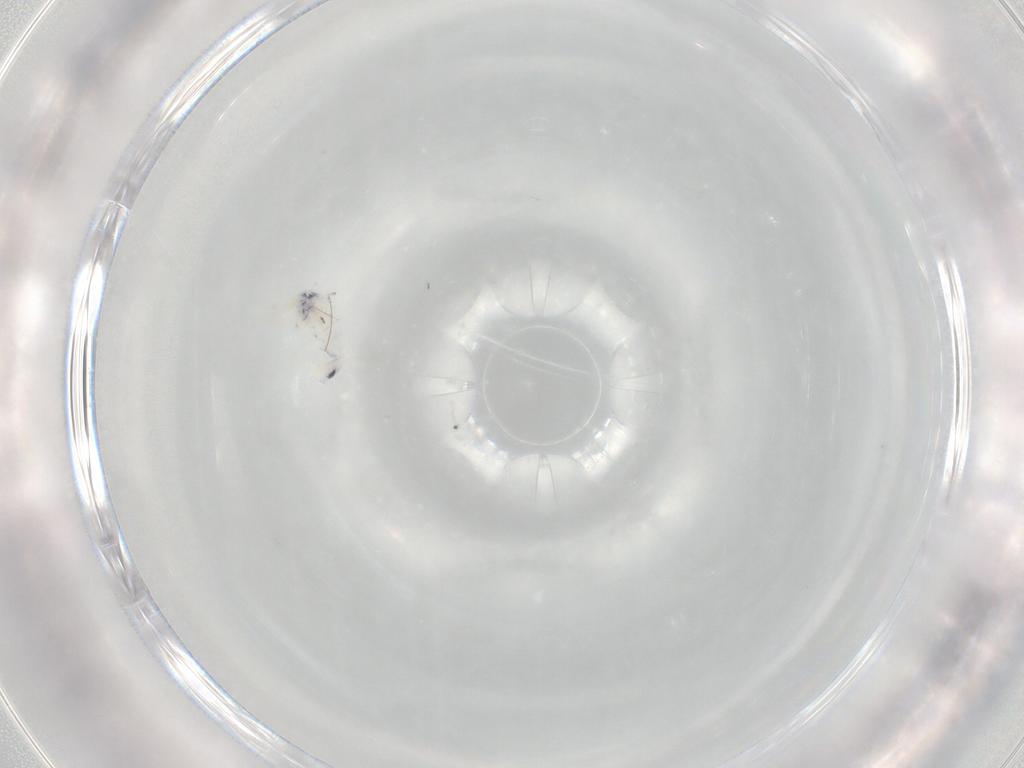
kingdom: Animalia
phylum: Arthropoda
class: Collembola
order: Entomobryomorpha
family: Entomobryidae
